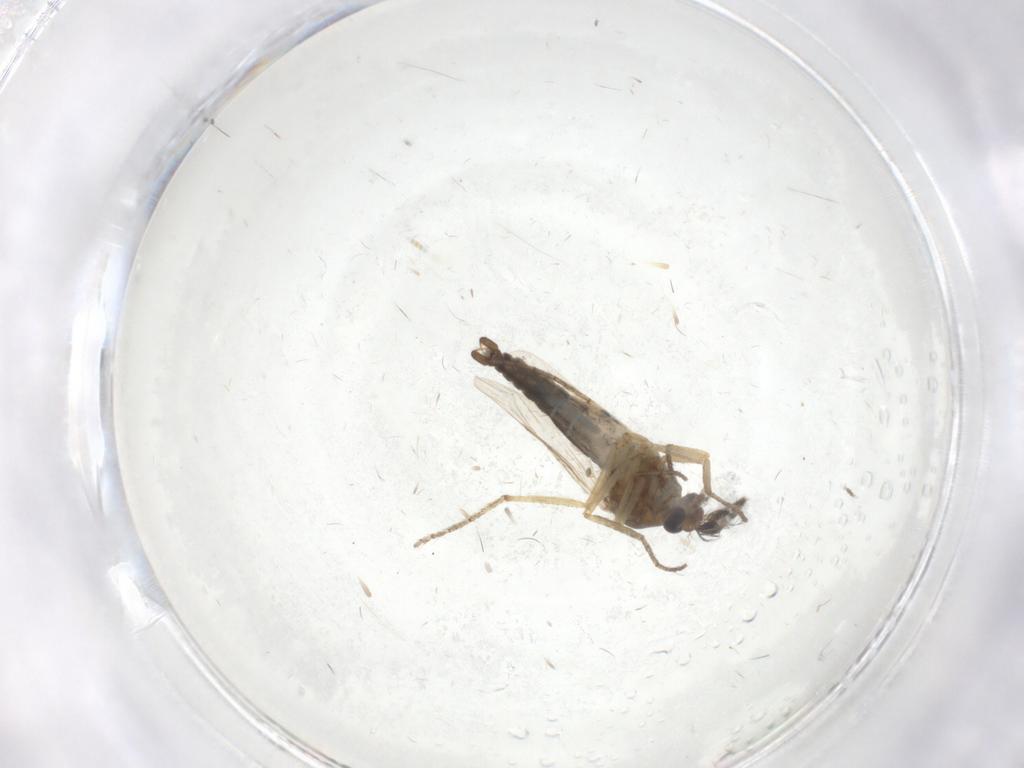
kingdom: Animalia
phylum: Arthropoda
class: Insecta
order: Diptera
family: Ceratopogonidae
